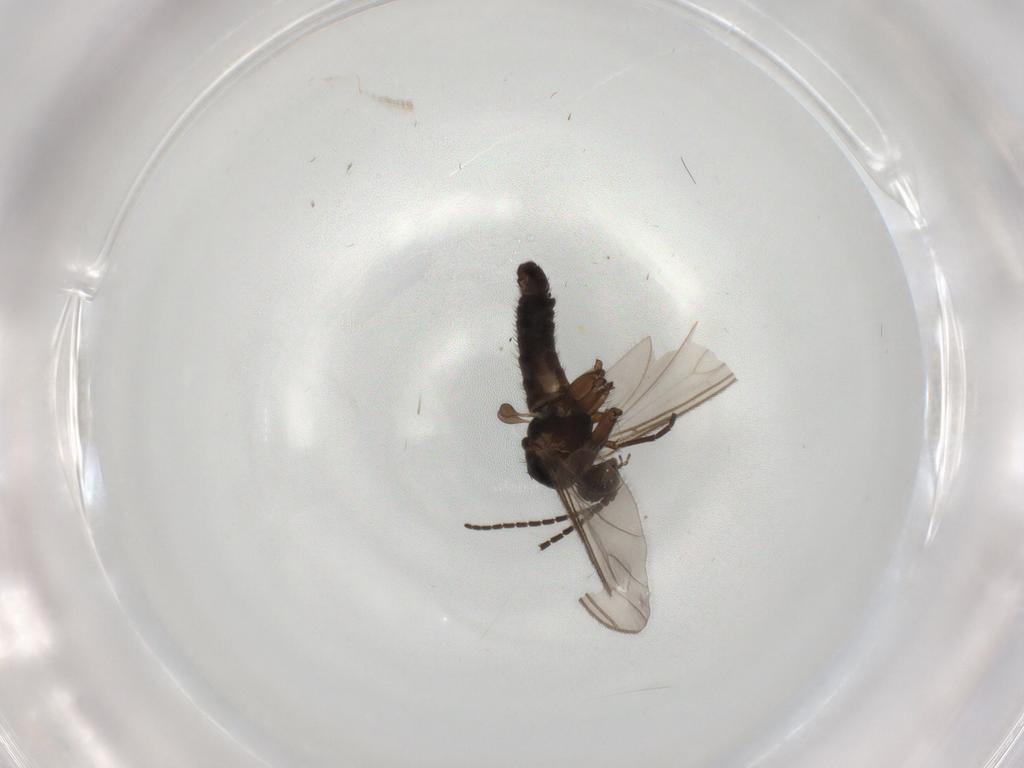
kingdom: Animalia
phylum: Arthropoda
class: Insecta
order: Diptera
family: Sciaridae
